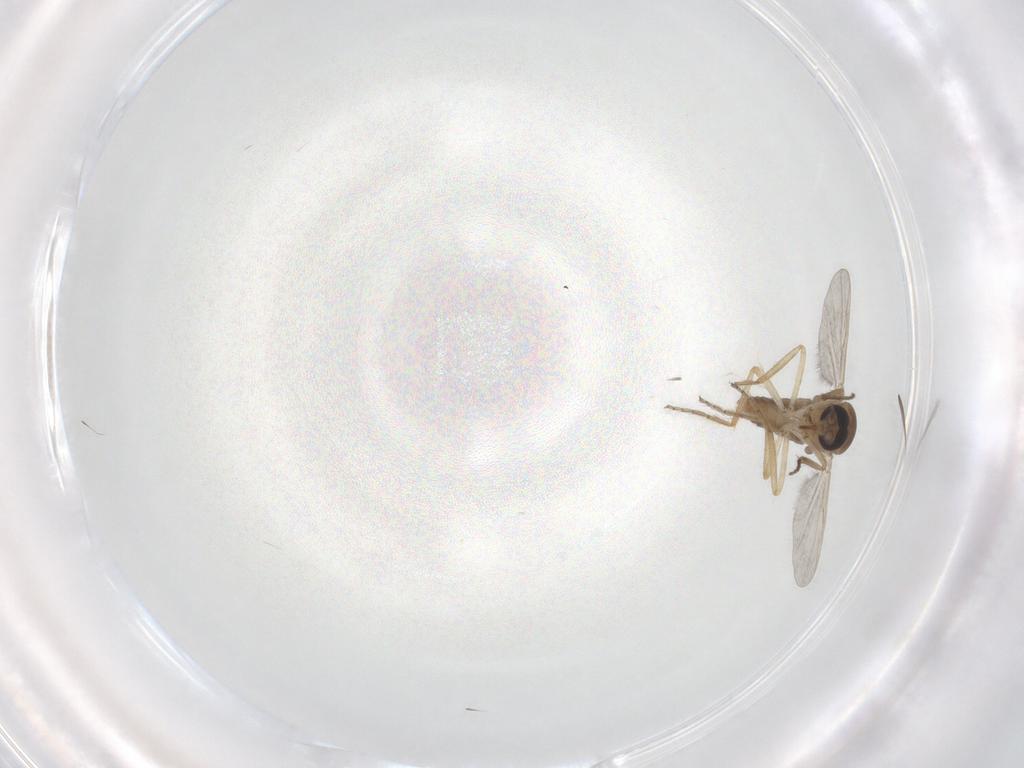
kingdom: Animalia
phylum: Arthropoda
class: Insecta
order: Diptera
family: Ceratopogonidae
